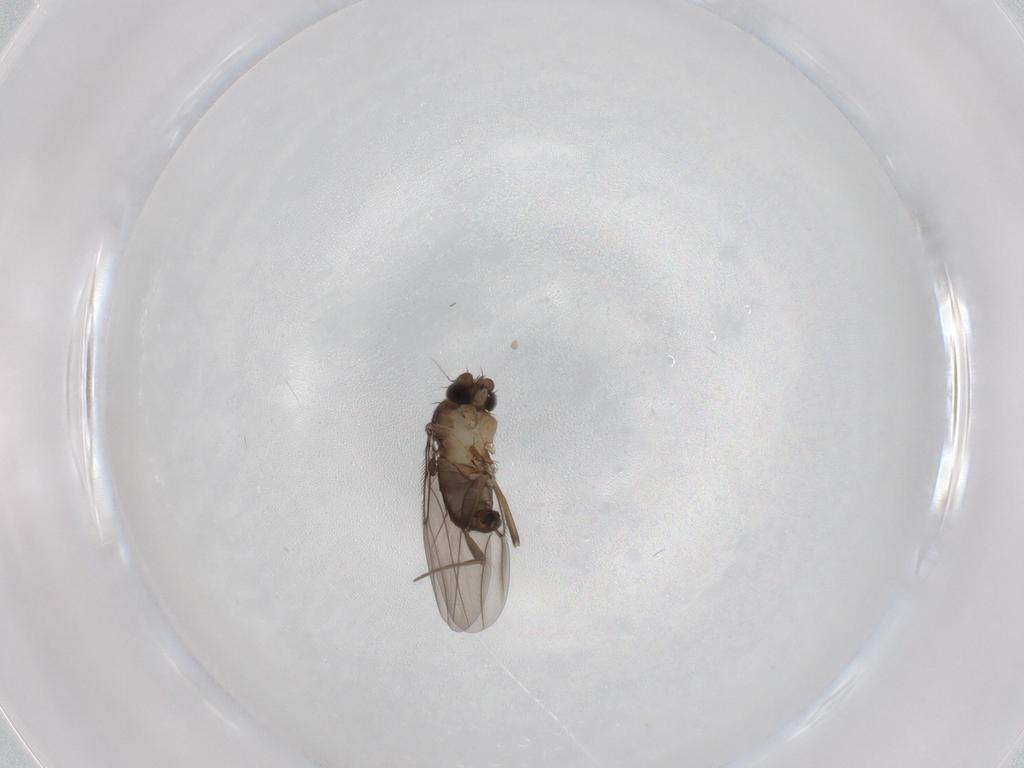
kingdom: Animalia
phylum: Arthropoda
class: Insecta
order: Diptera
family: Phoridae
